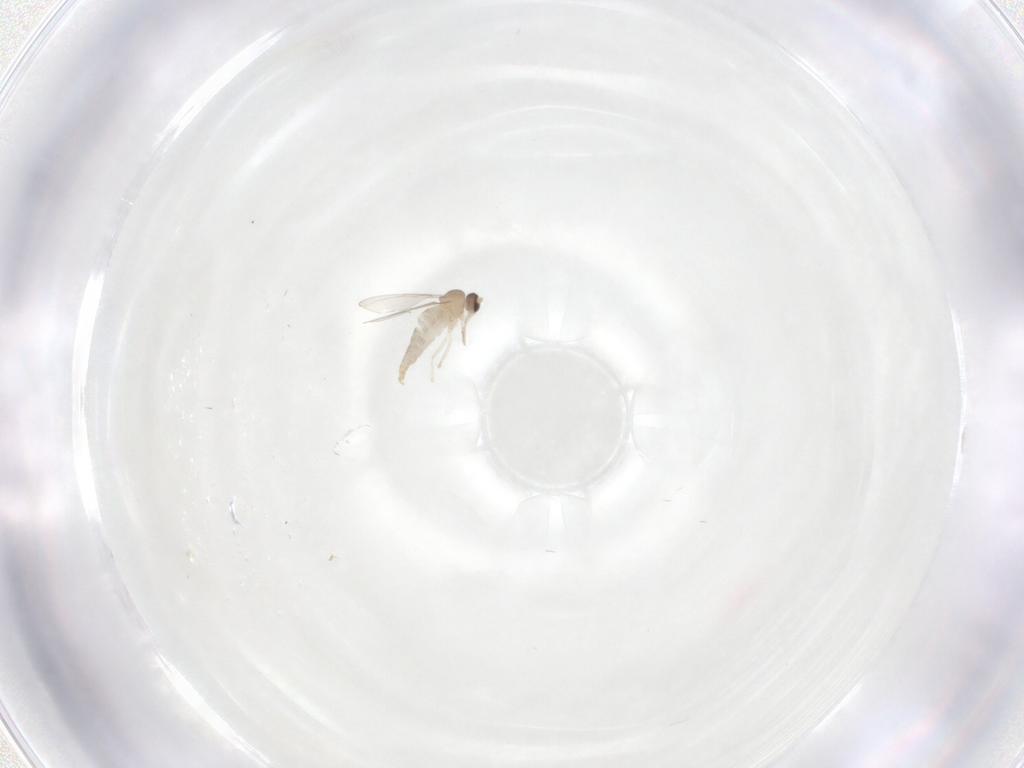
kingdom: Animalia
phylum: Arthropoda
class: Insecta
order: Diptera
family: Cecidomyiidae
